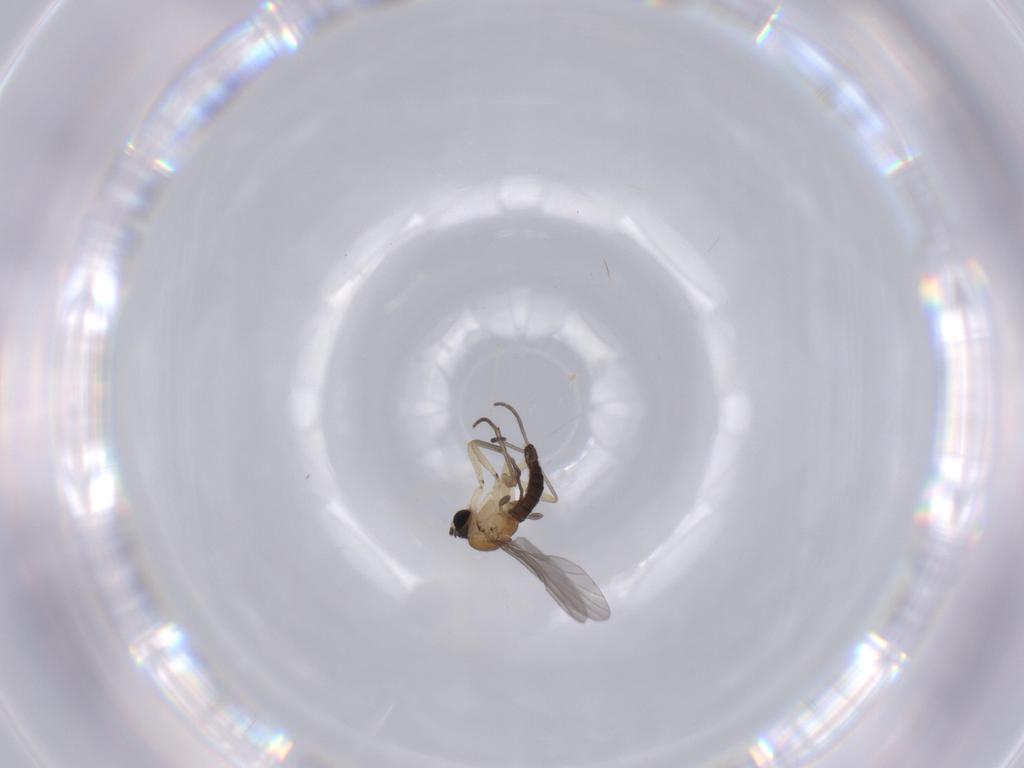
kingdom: Animalia
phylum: Arthropoda
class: Insecta
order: Diptera
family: Sciaridae
